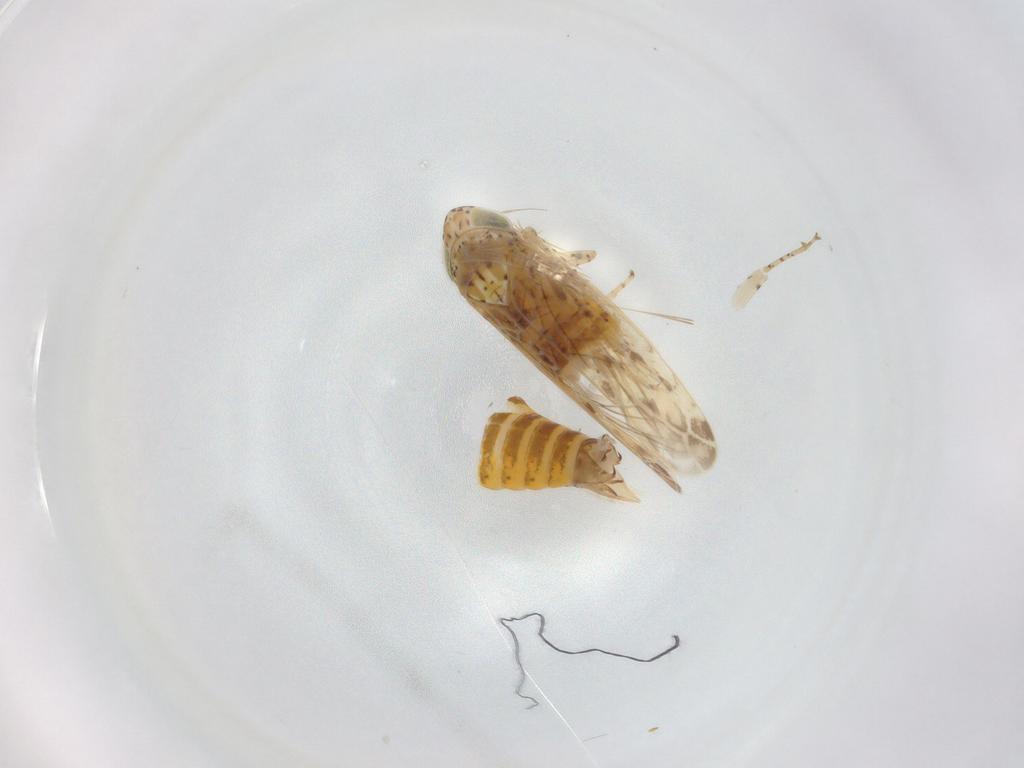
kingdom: Animalia
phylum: Arthropoda
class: Insecta
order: Hemiptera
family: Cicadellidae
